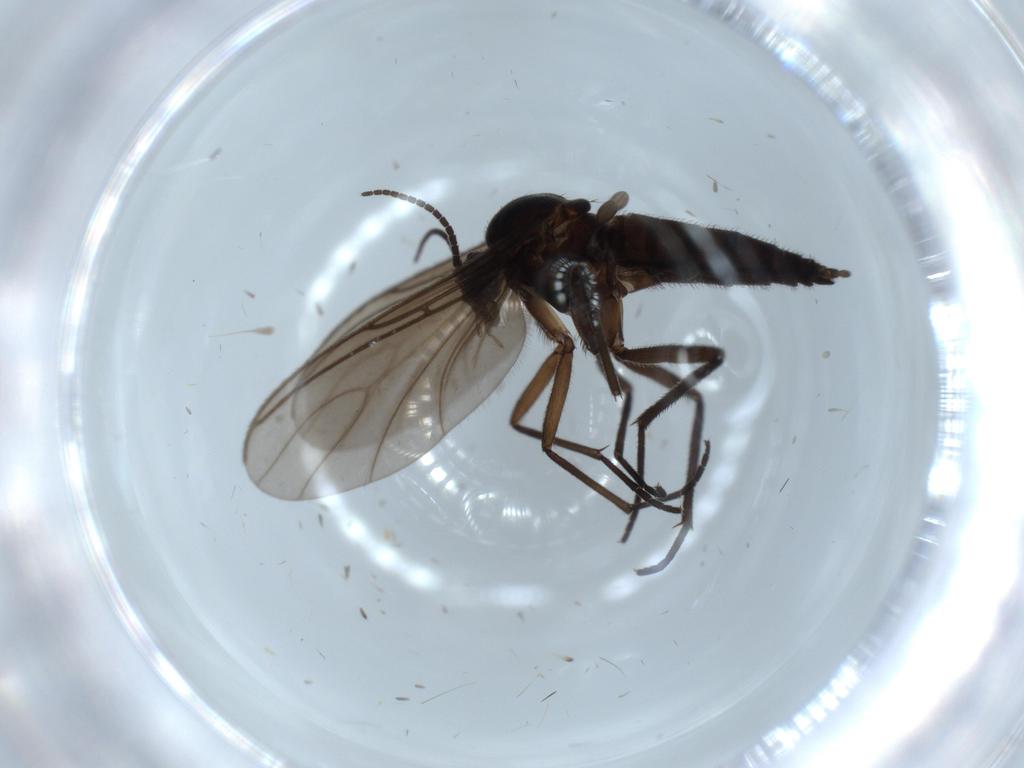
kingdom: Animalia
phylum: Arthropoda
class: Insecta
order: Diptera
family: Sciaridae
